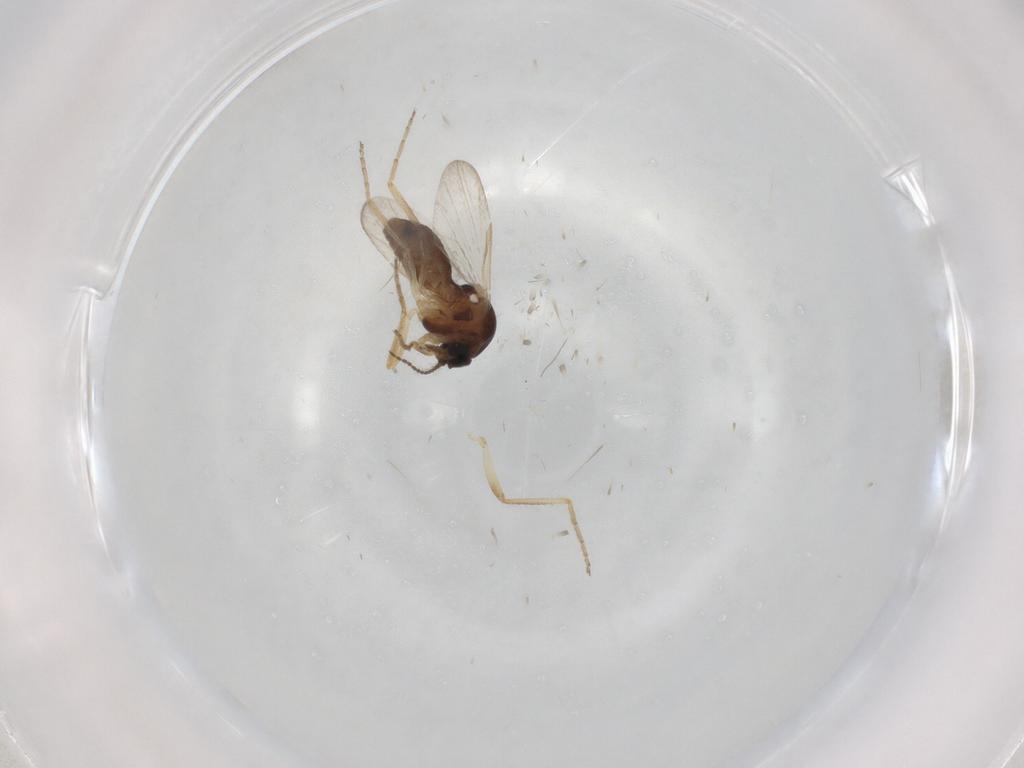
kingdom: Animalia
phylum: Arthropoda
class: Insecta
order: Diptera
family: Ceratopogonidae
